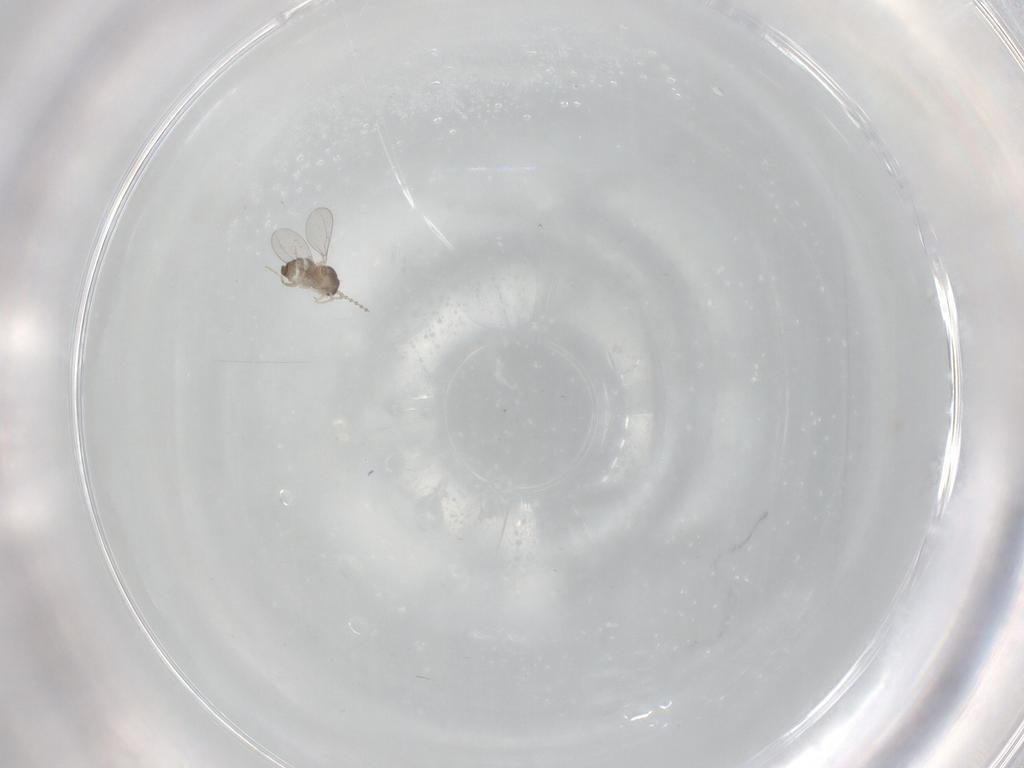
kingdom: Animalia
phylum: Arthropoda
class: Insecta
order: Diptera
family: Cecidomyiidae
